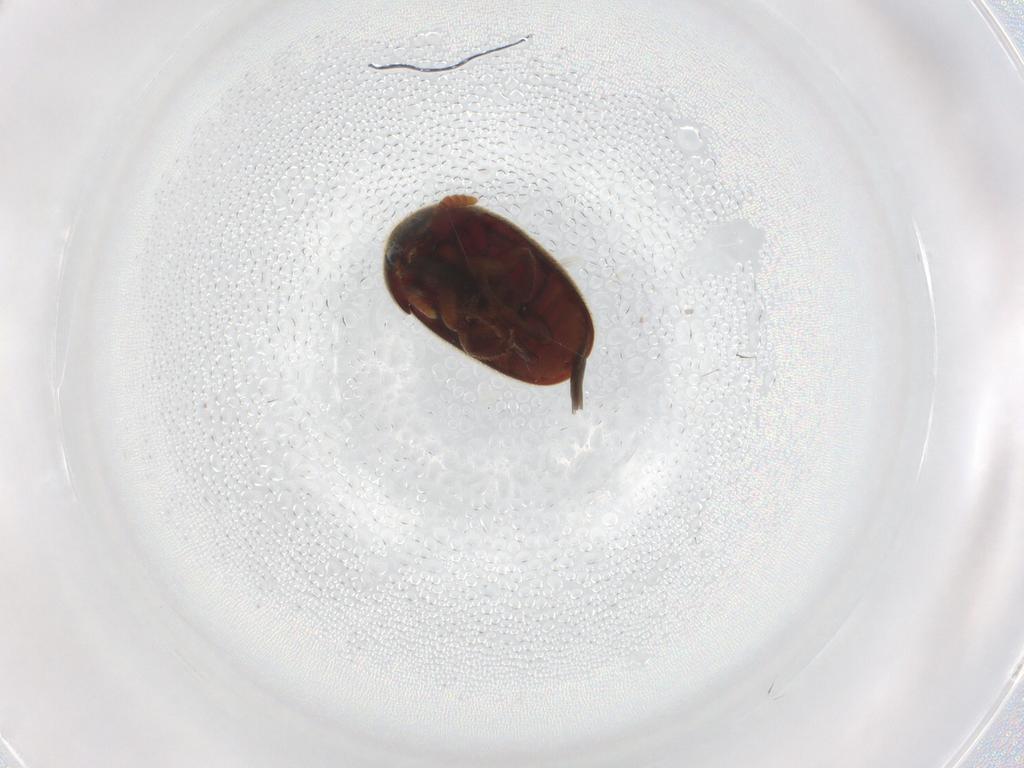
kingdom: Animalia
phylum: Arthropoda
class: Insecta
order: Coleoptera
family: Leiodidae
